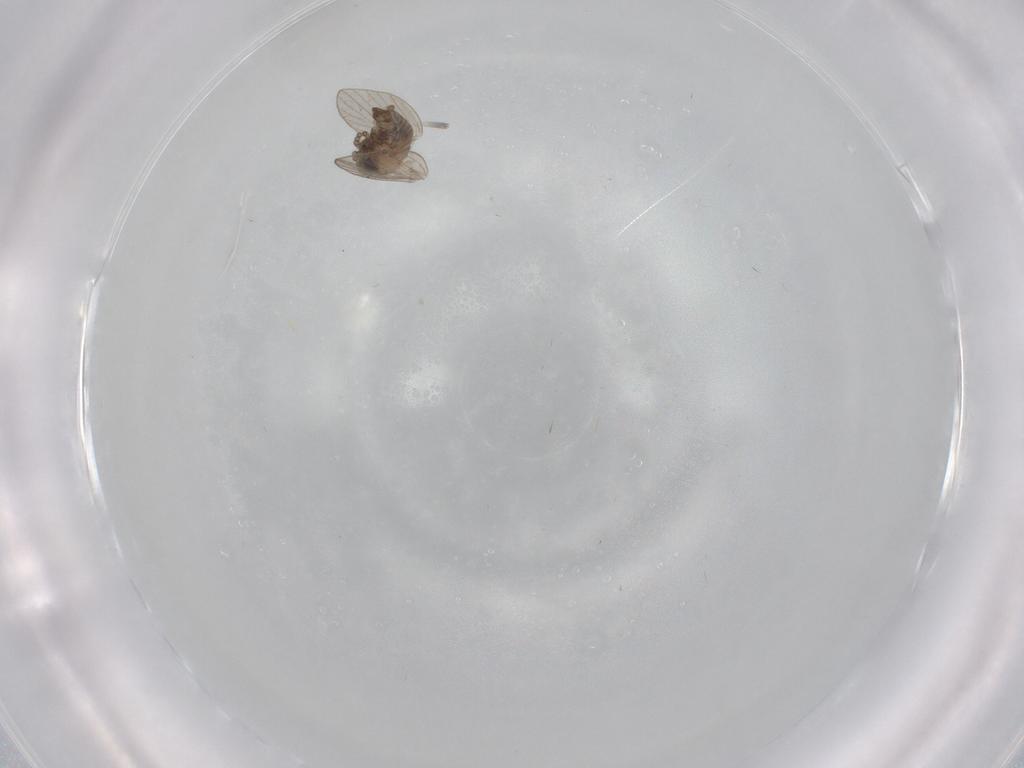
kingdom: Animalia
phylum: Arthropoda
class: Insecta
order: Diptera
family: Psychodidae
